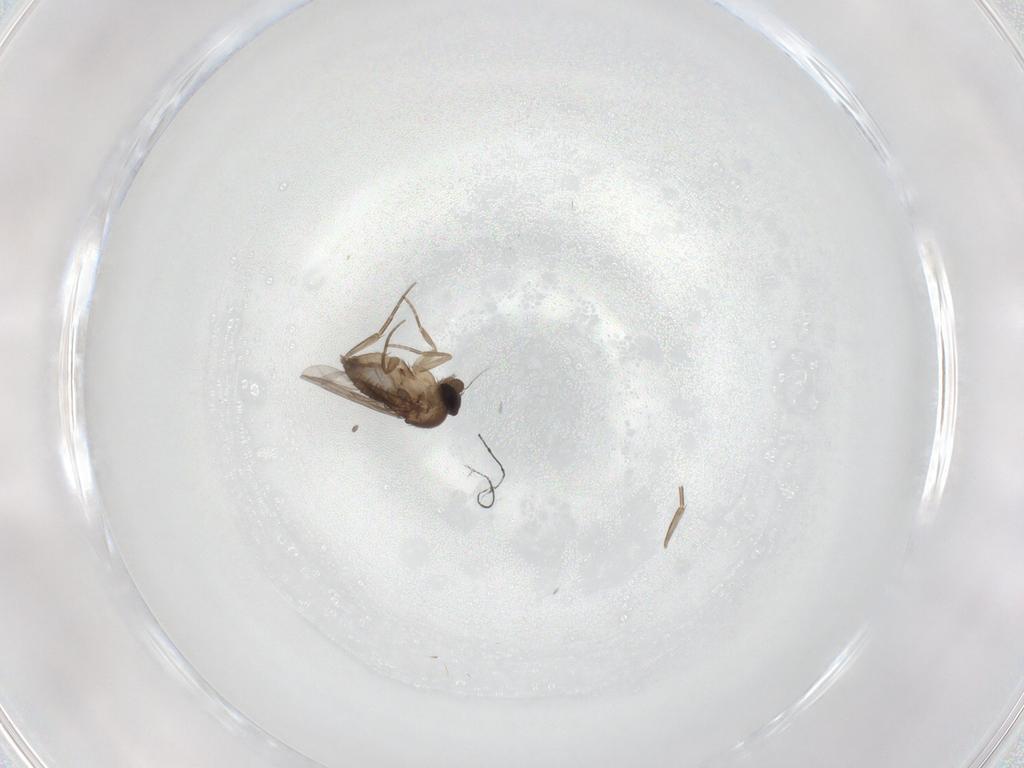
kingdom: Animalia
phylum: Arthropoda
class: Insecta
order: Diptera
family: Phoridae
